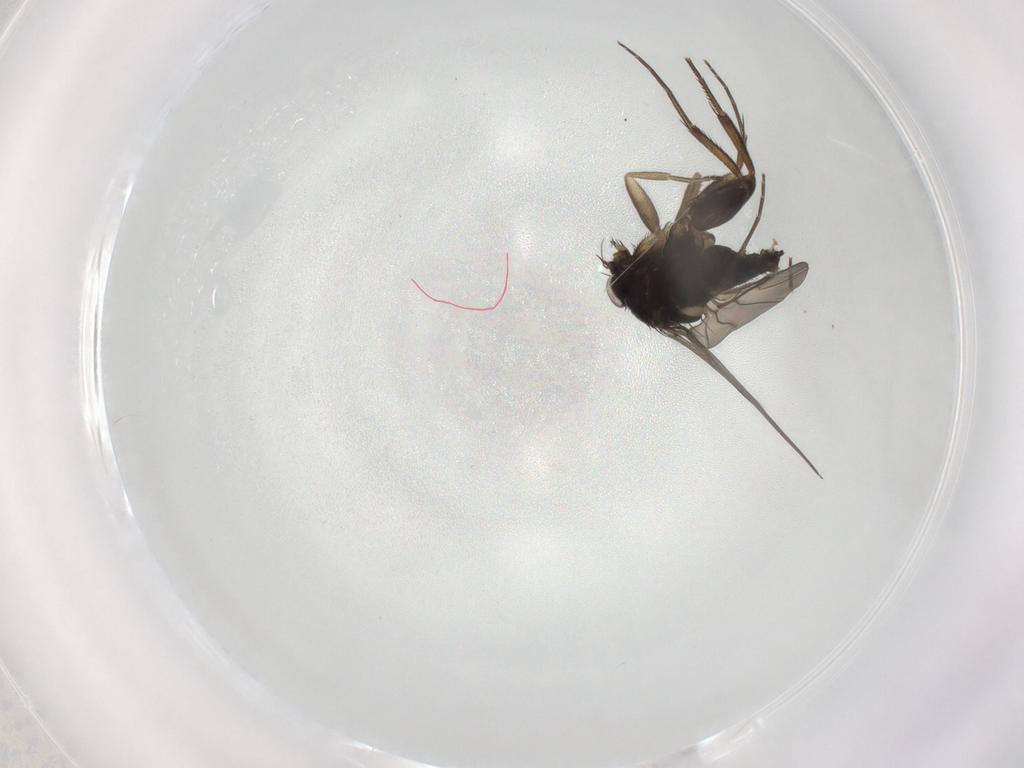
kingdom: Animalia
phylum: Arthropoda
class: Insecta
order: Diptera
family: Phoridae
